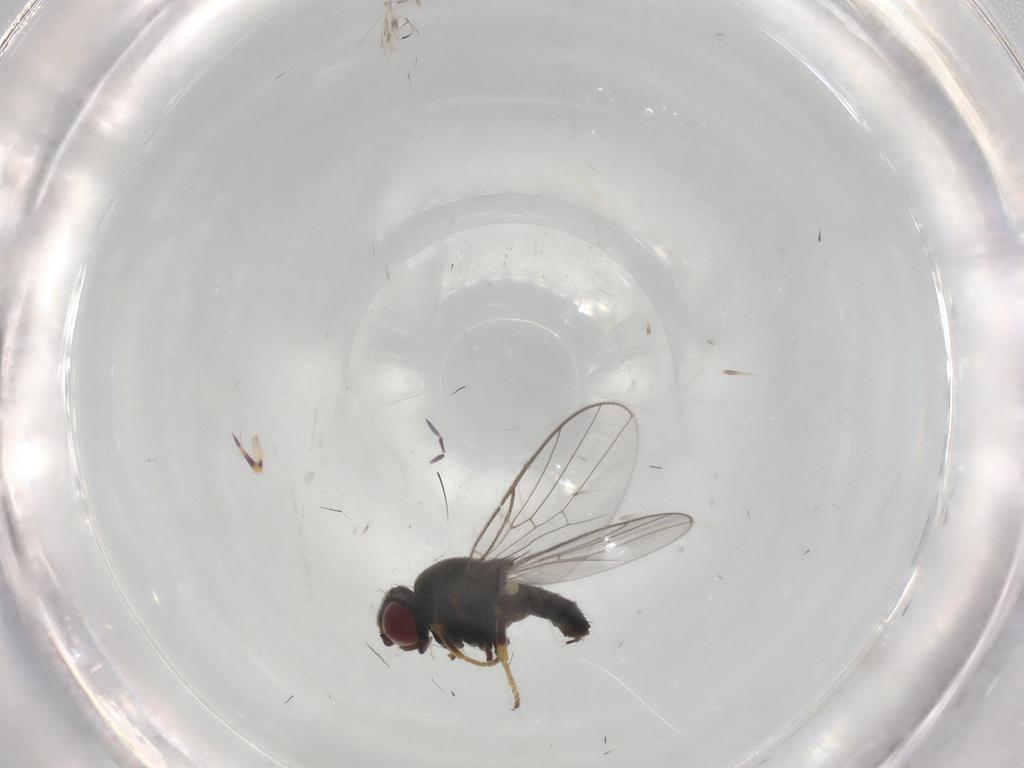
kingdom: Animalia
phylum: Arthropoda
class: Insecta
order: Diptera
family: Chloropidae
